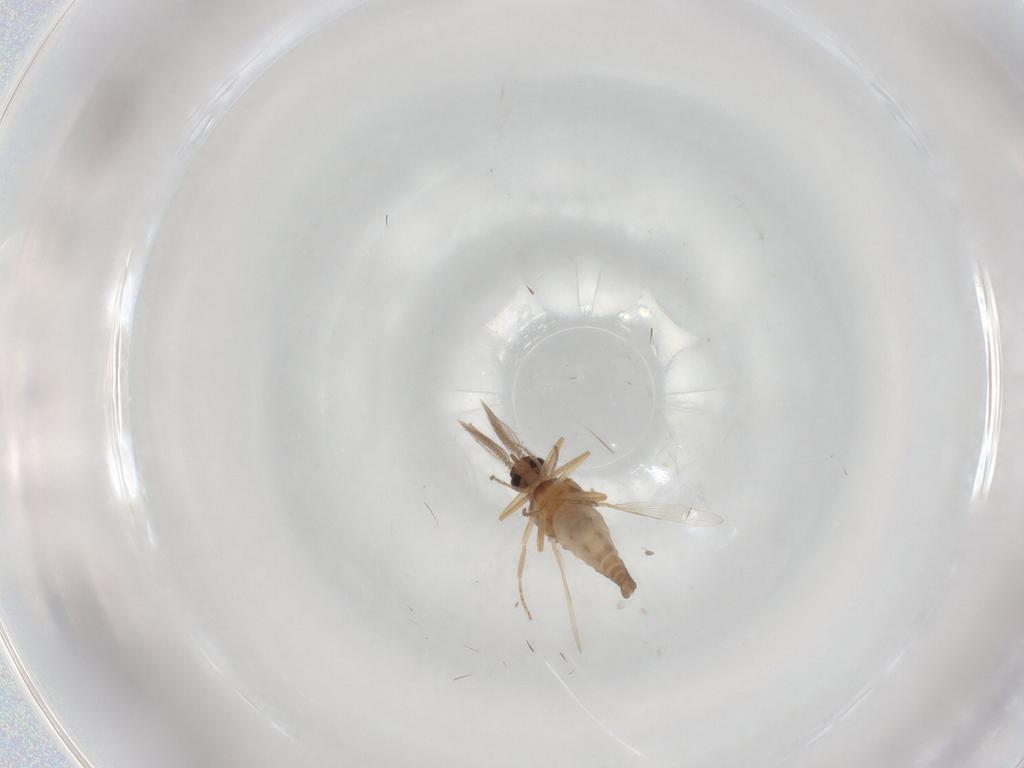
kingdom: Animalia
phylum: Arthropoda
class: Insecta
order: Diptera
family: Ceratopogonidae
